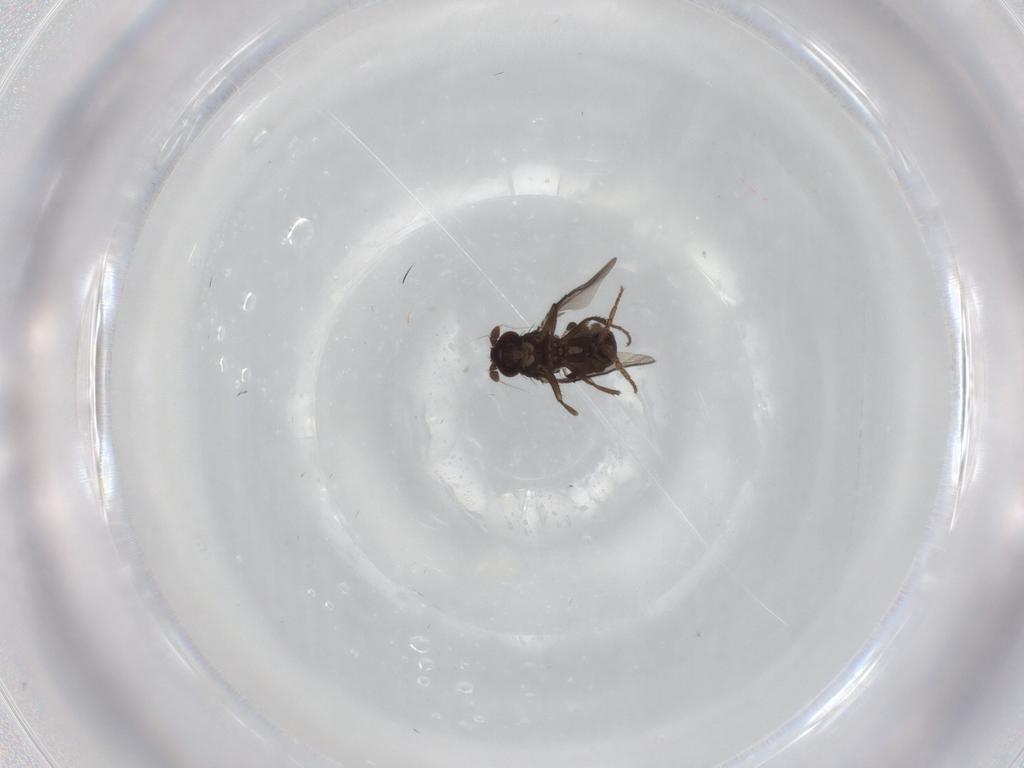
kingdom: Animalia
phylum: Arthropoda
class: Insecta
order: Diptera
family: Sphaeroceridae
